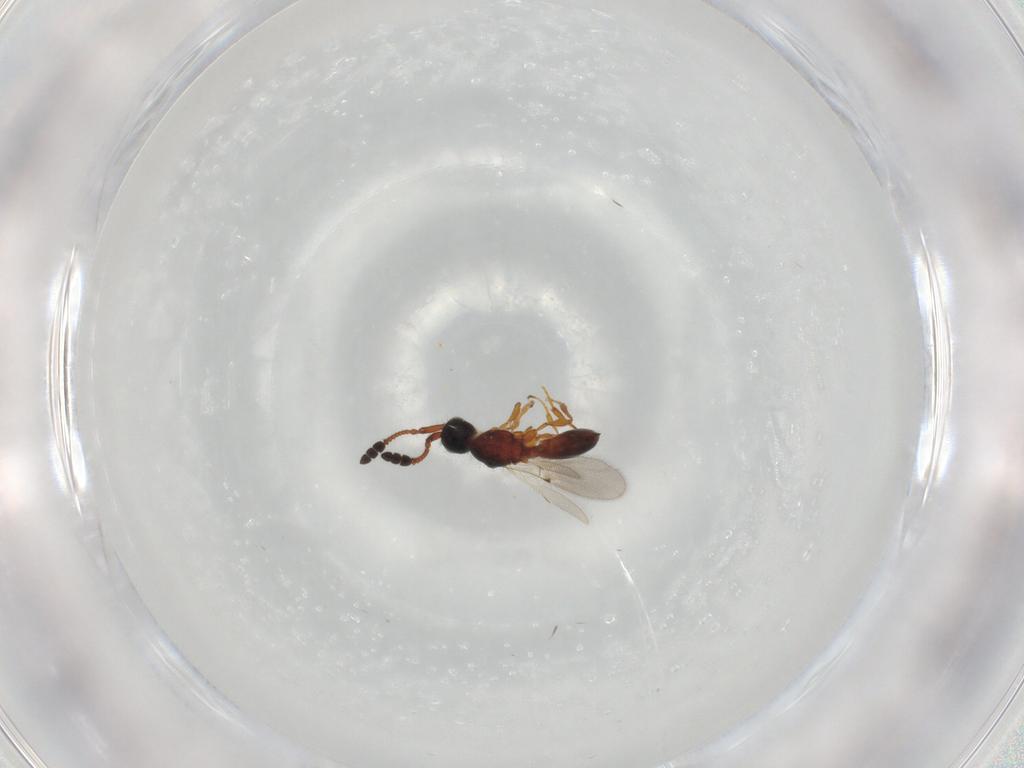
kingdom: Animalia
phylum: Arthropoda
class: Insecta
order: Hymenoptera
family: Diapriidae
